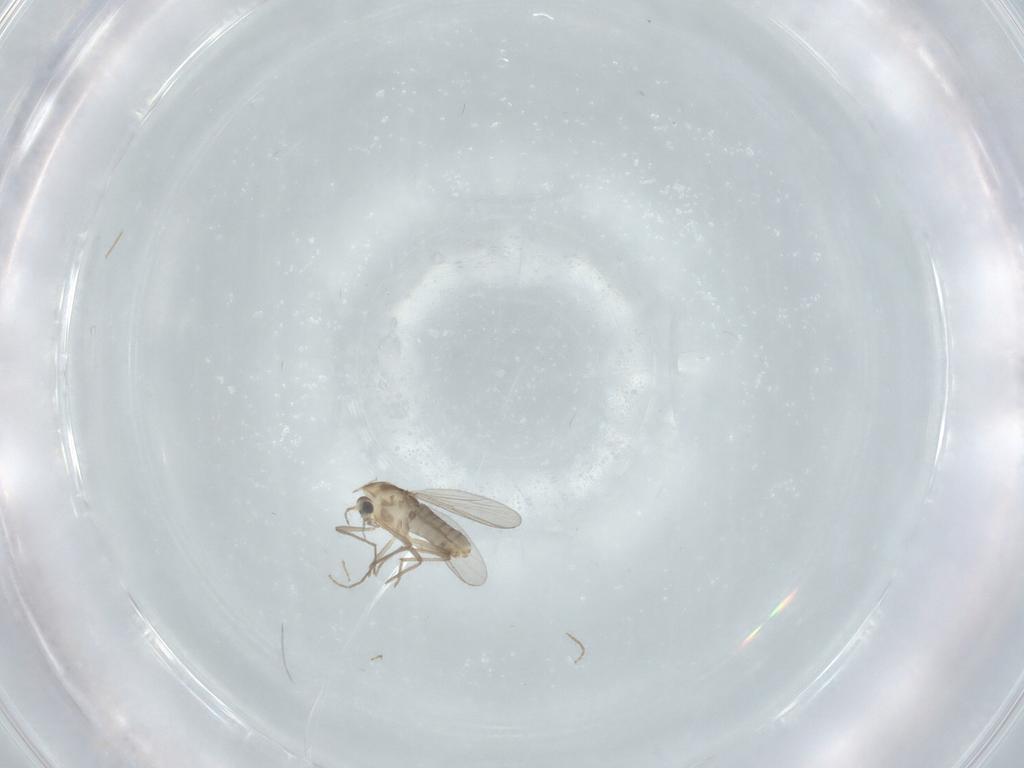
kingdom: Animalia
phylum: Arthropoda
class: Insecta
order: Diptera
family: Chironomidae
